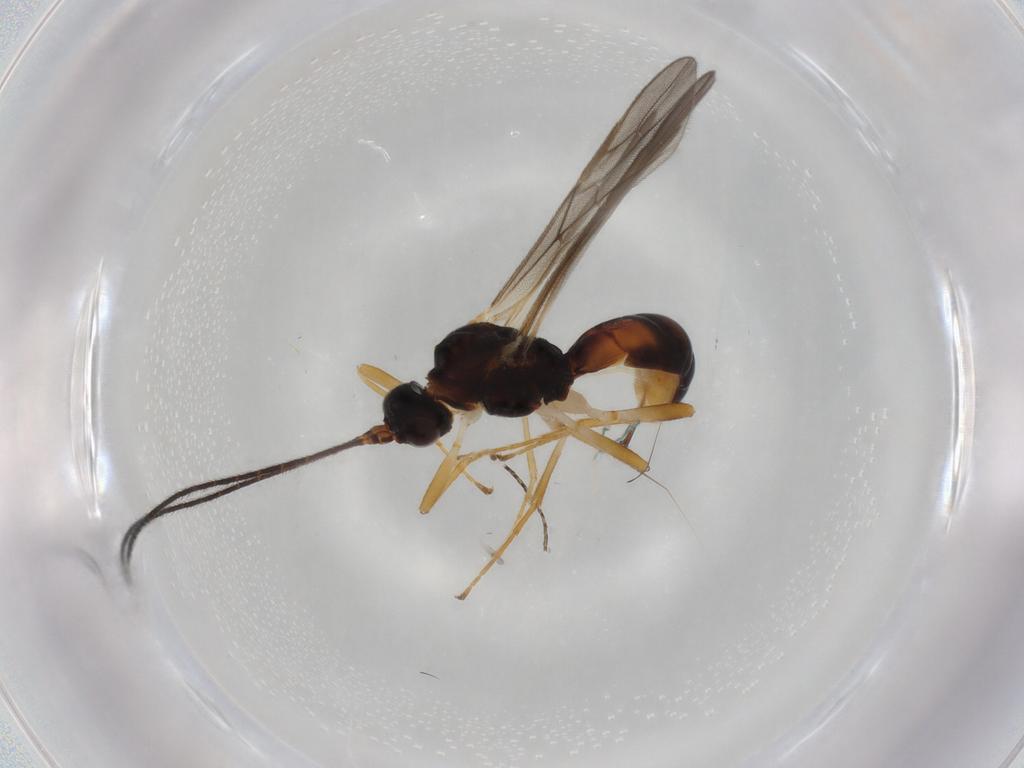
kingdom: Animalia
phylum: Arthropoda
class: Insecta
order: Hymenoptera
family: Braconidae
